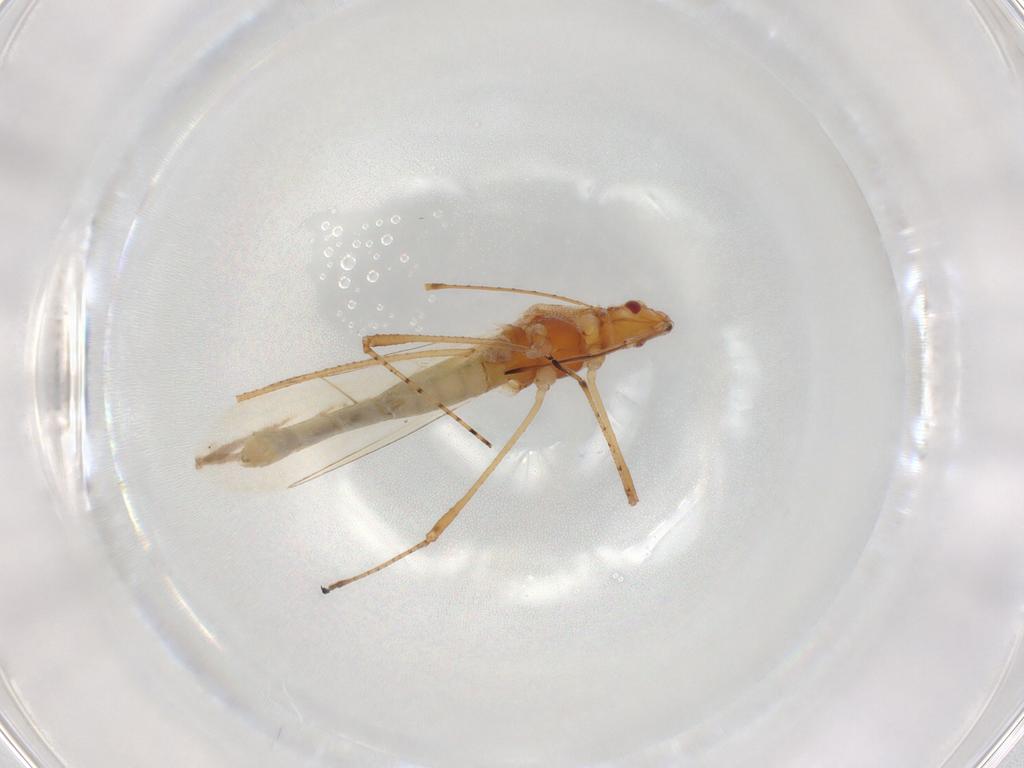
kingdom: Animalia
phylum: Arthropoda
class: Insecta
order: Hemiptera
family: Cymidae
